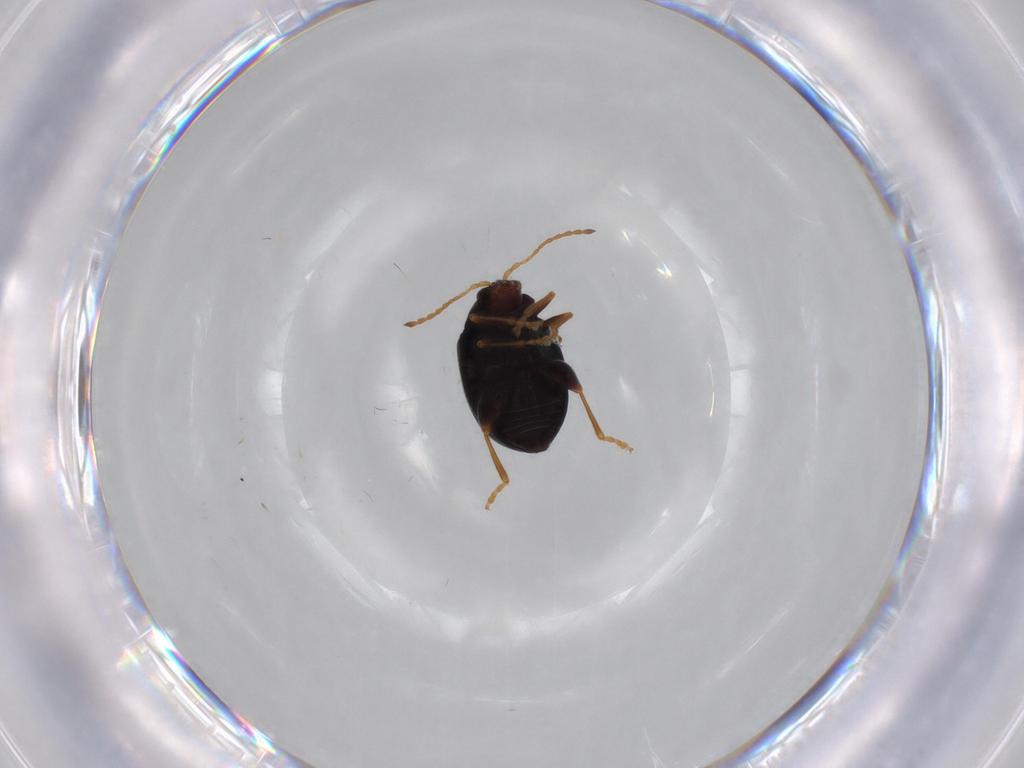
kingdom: Animalia
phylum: Arthropoda
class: Insecta
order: Coleoptera
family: Chrysomelidae
